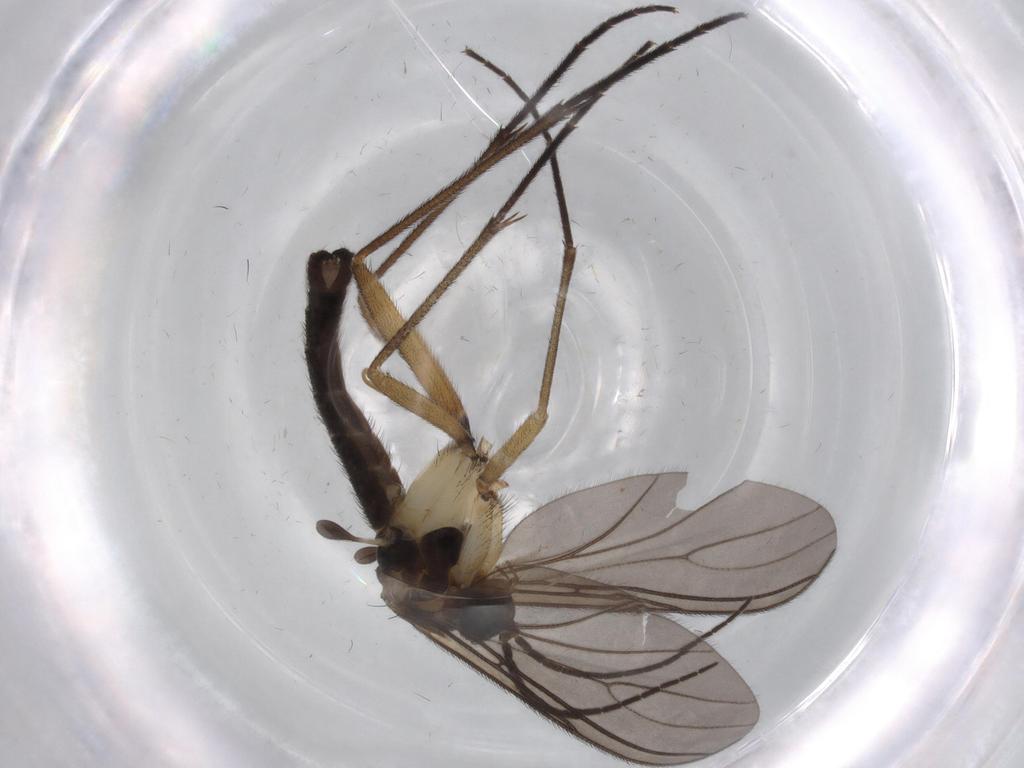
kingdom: Animalia
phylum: Arthropoda
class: Insecta
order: Diptera
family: Sciaridae
